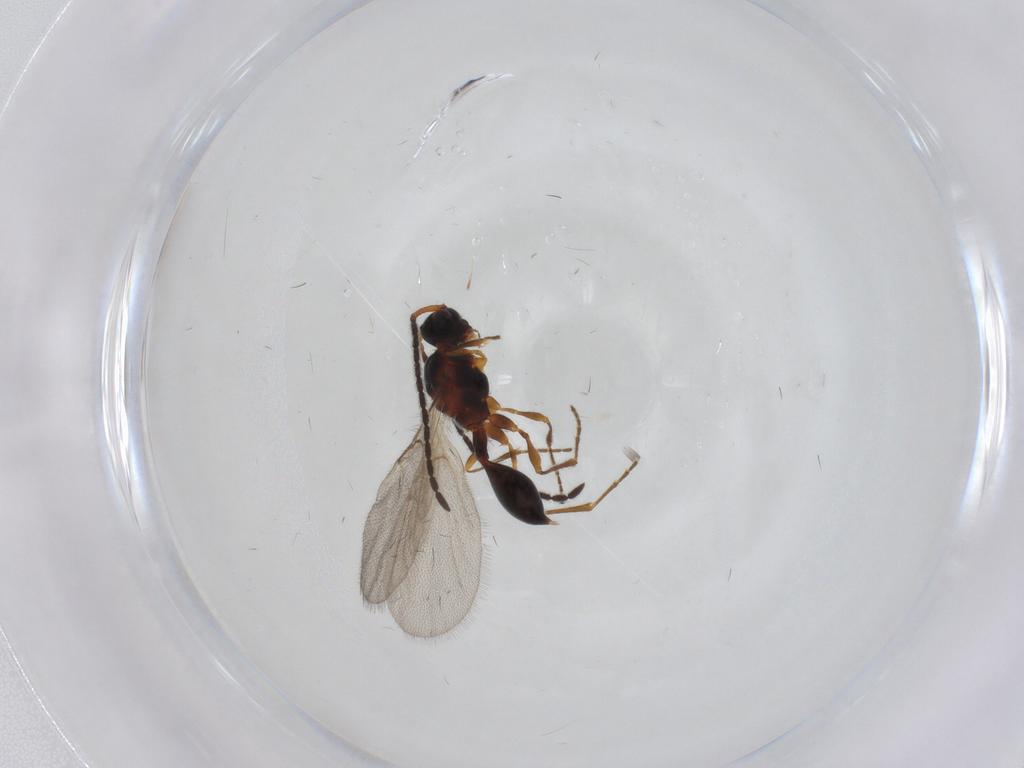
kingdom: Animalia
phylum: Arthropoda
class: Insecta
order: Hymenoptera
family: Diapriidae
